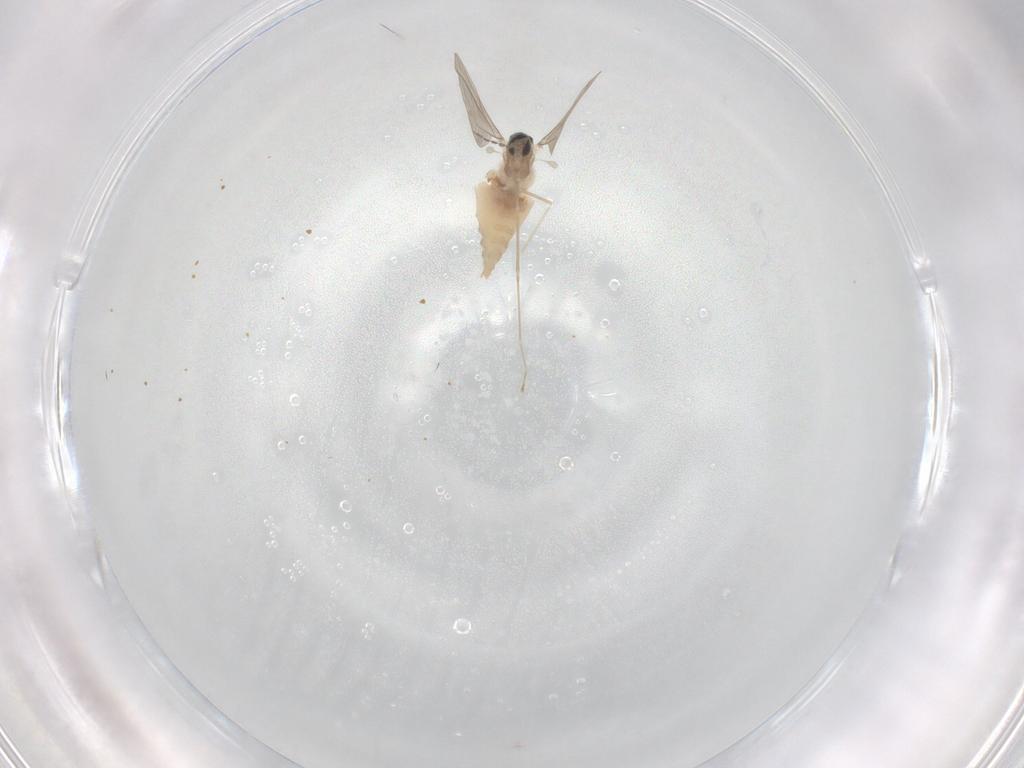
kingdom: Animalia
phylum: Arthropoda
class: Insecta
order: Diptera
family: Cecidomyiidae
